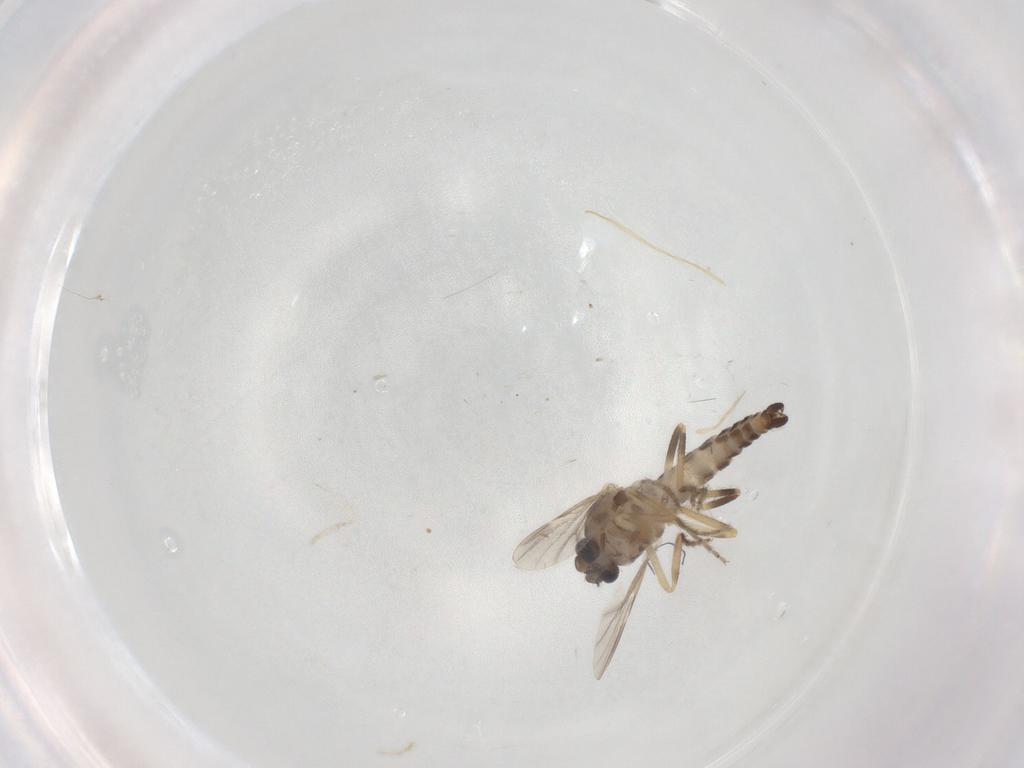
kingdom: Animalia
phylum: Arthropoda
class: Insecta
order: Diptera
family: Ceratopogonidae
